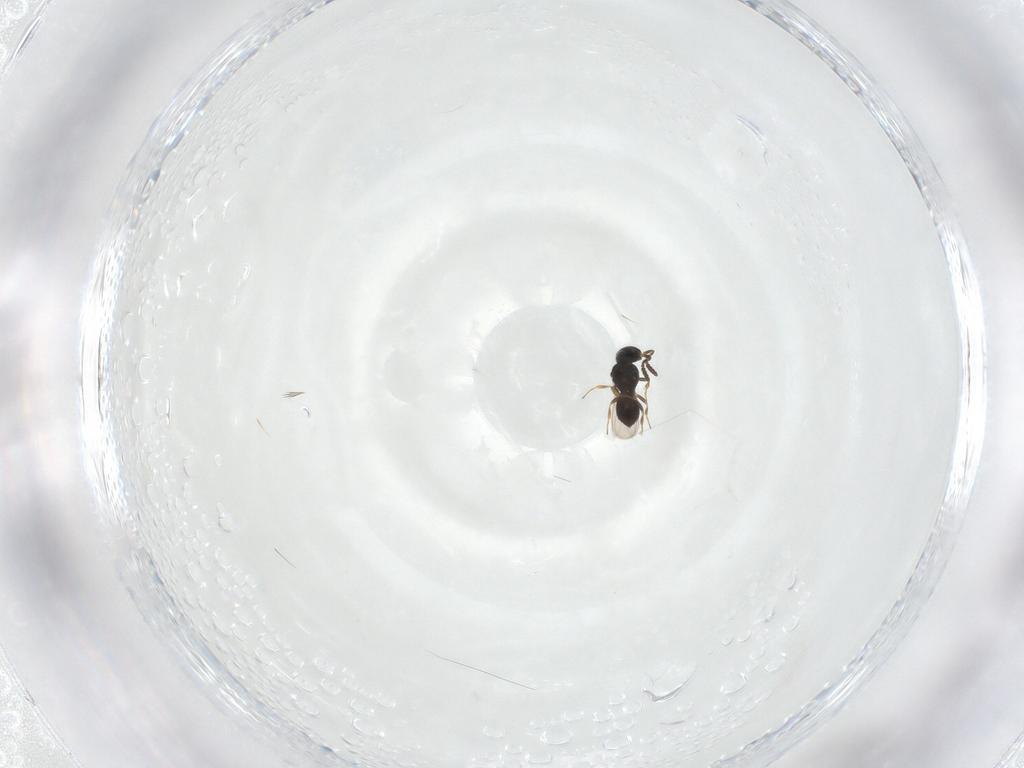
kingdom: Animalia
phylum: Arthropoda
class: Insecta
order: Hymenoptera
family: Scelionidae
